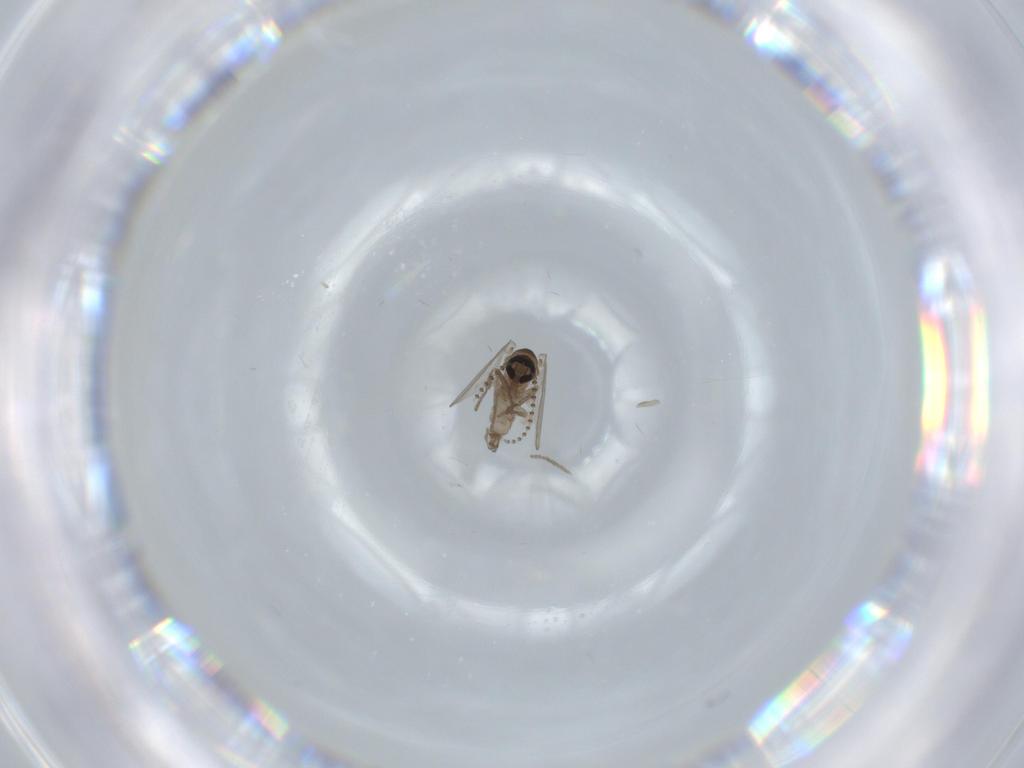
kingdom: Animalia
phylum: Arthropoda
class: Insecta
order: Diptera
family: Psychodidae
